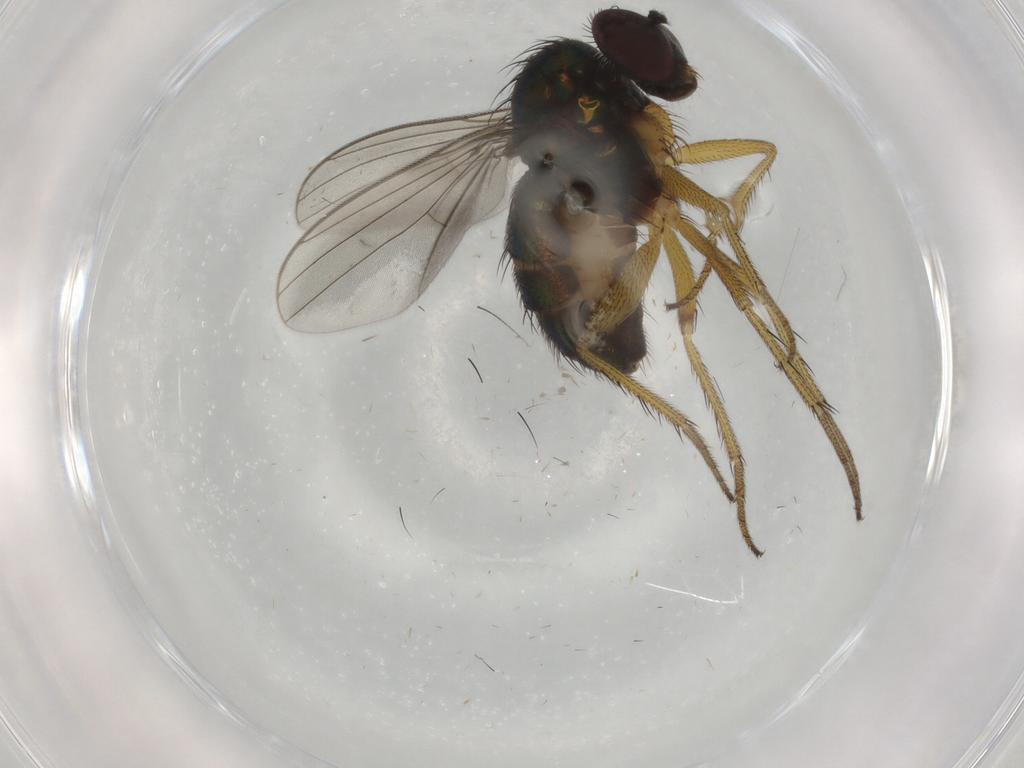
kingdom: Animalia
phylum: Arthropoda
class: Insecta
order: Diptera
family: Dolichopodidae
